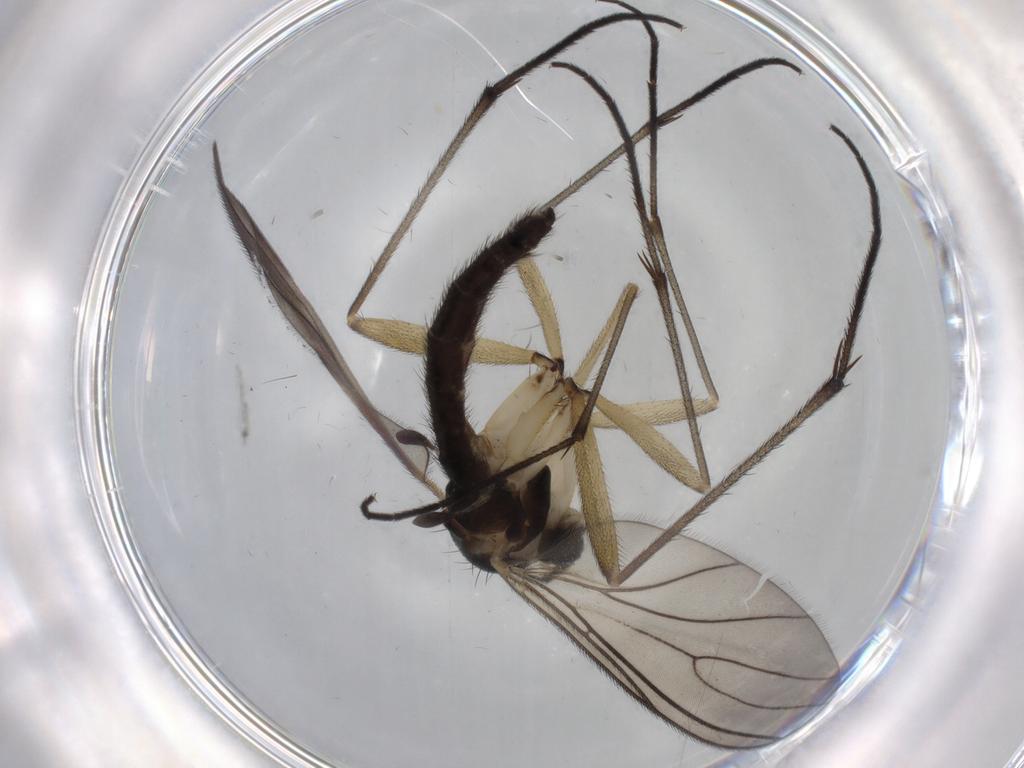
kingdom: Animalia
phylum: Arthropoda
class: Insecta
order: Diptera
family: Sciaridae
